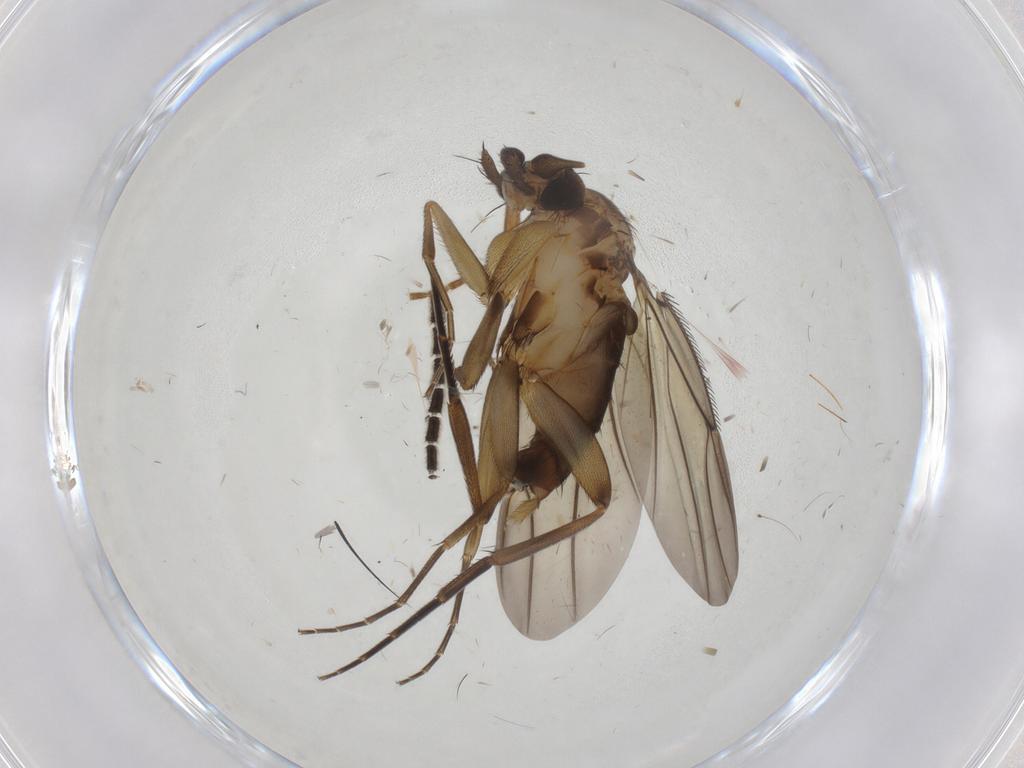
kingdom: Animalia
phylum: Arthropoda
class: Insecta
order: Diptera
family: Phoridae
